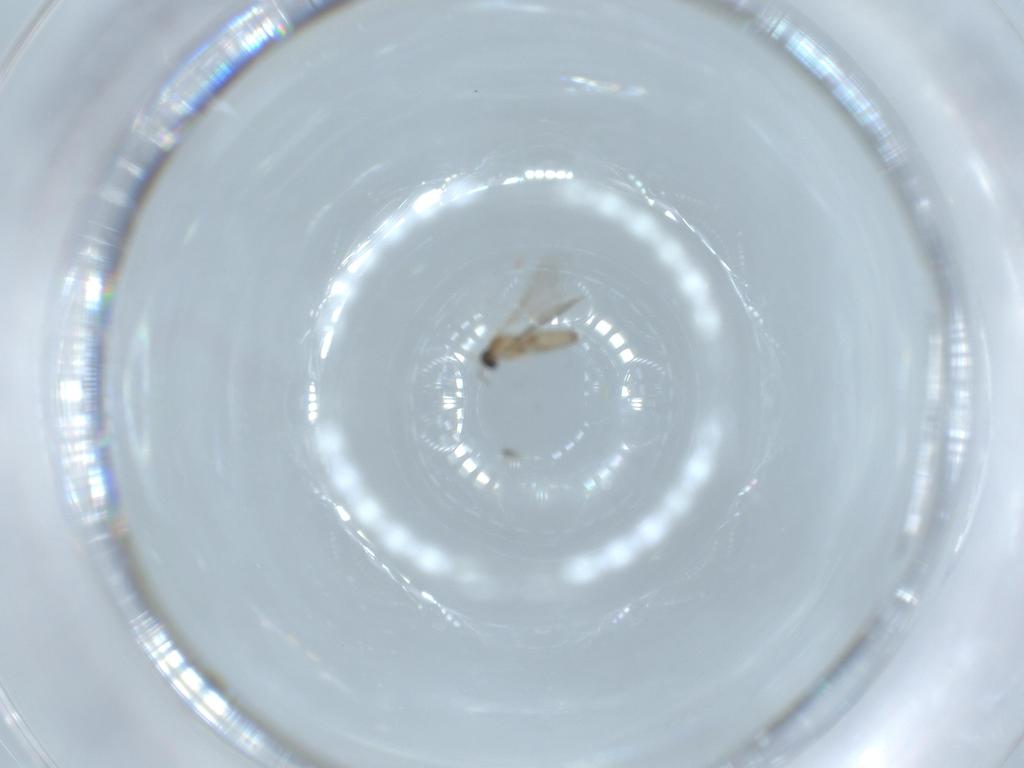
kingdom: Animalia
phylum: Arthropoda
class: Insecta
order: Diptera
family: Cecidomyiidae
